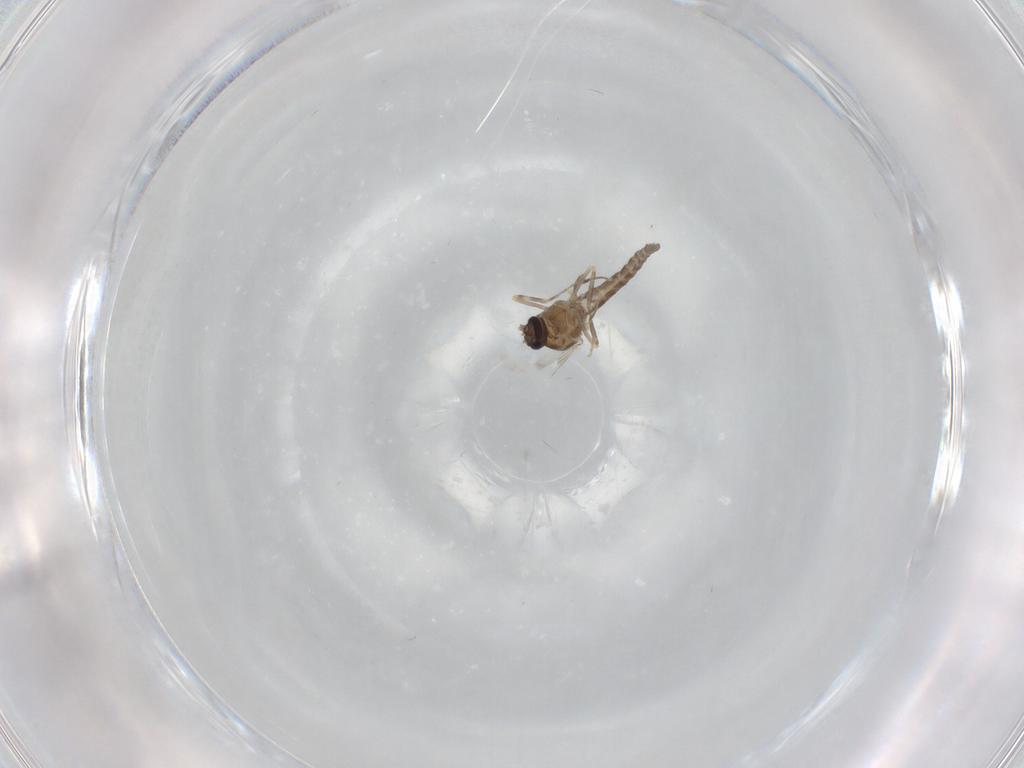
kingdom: Animalia
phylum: Arthropoda
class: Insecta
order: Diptera
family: Ceratopogonidae
